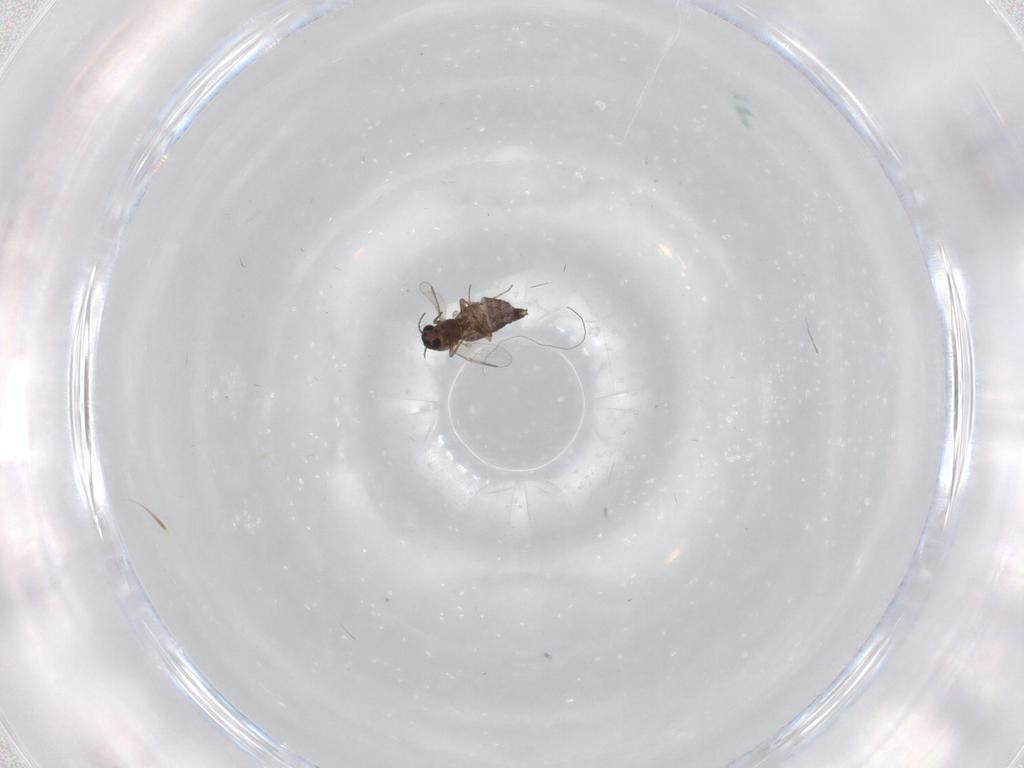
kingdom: Animalia
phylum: Arthropoda
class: Insecta
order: Diptera
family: Chironomidae
